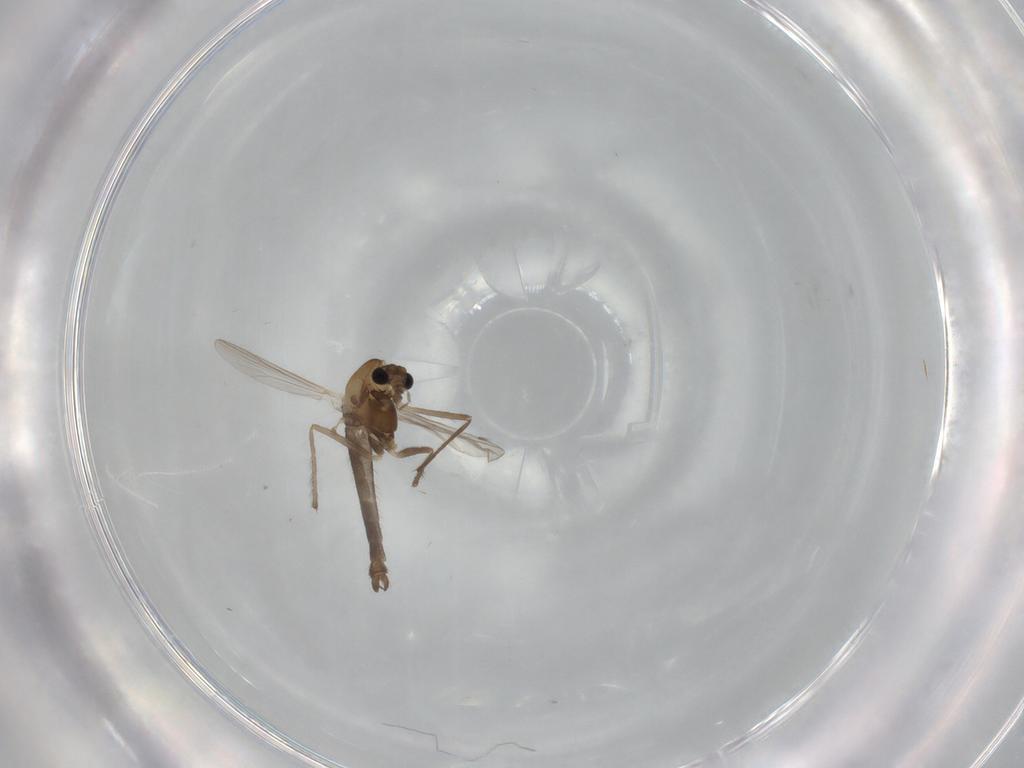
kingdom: Animalia
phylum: Arthropoda
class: Insecta
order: Diptera
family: Chironomidae
